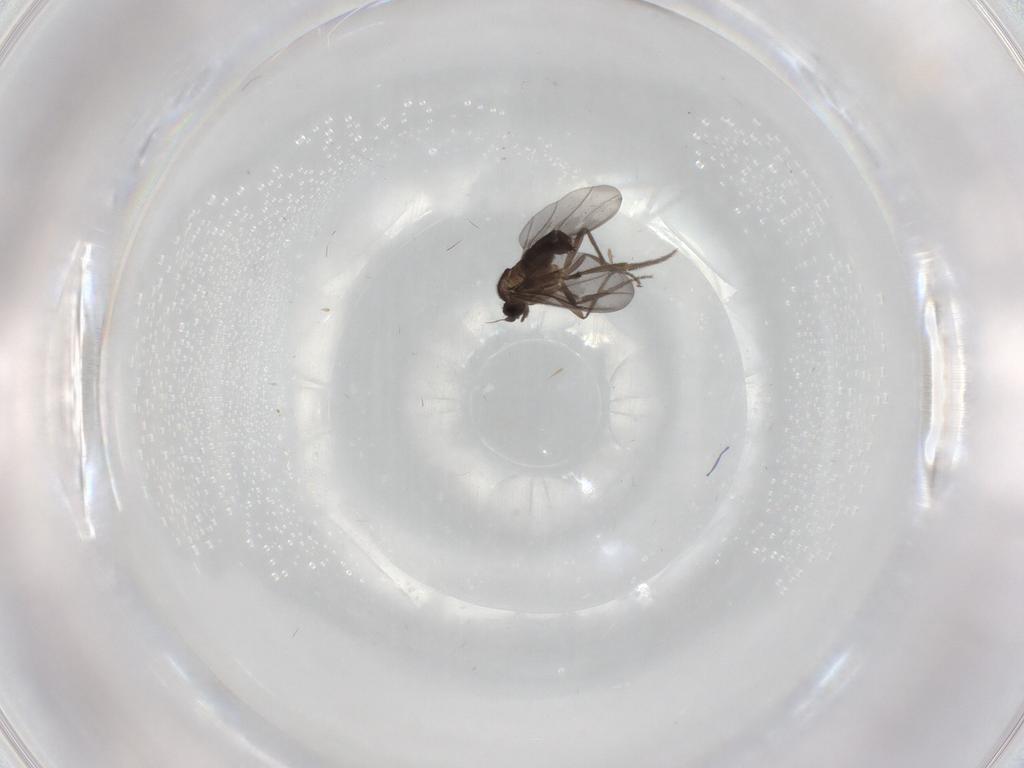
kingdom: Animalia
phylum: Arthropoda
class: Insecta
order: Diptera
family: Phoridae
